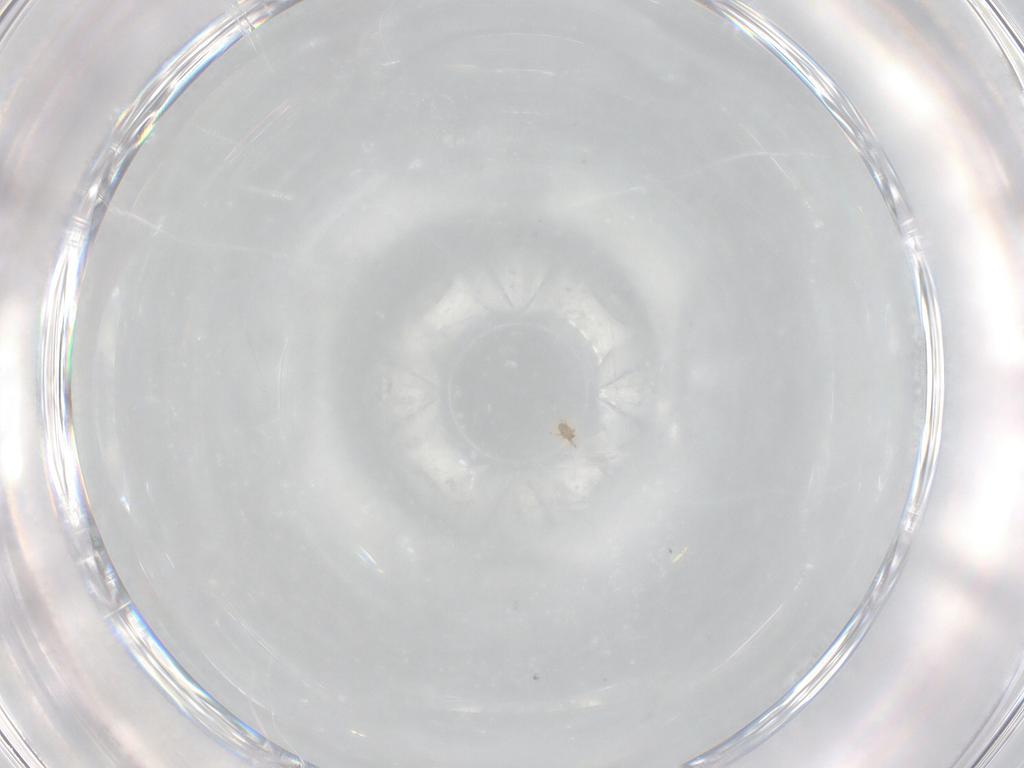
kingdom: Animalia
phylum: Arthropoda
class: Arachnida
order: Trombidiformes
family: Pygmephoridae
